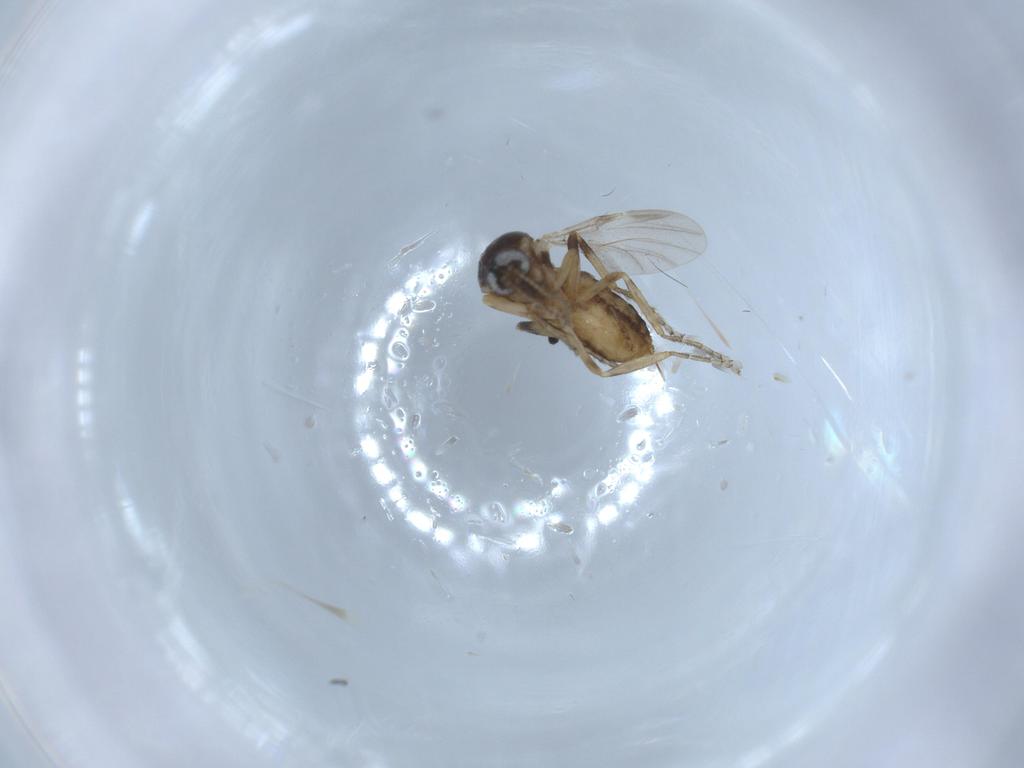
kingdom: Animalia
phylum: Arthropoda
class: Insecta
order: Diptera
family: Ceratopogonidae
